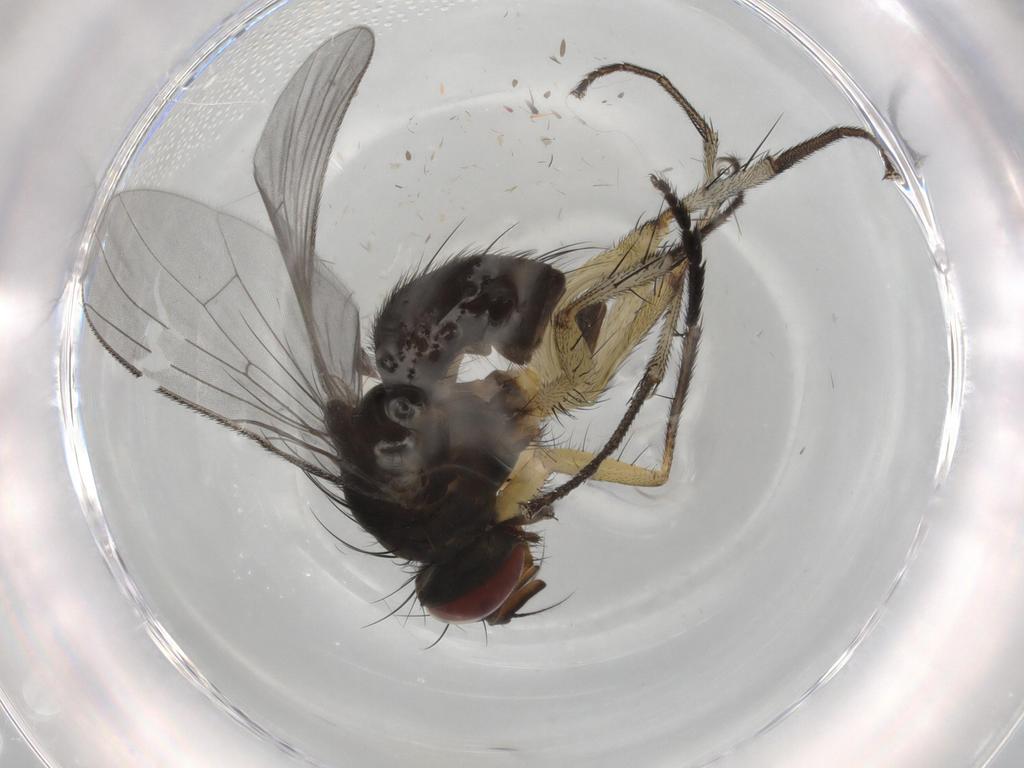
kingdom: Animalia
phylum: Arthropoda
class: Insecta
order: Diptera
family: Muscidae
